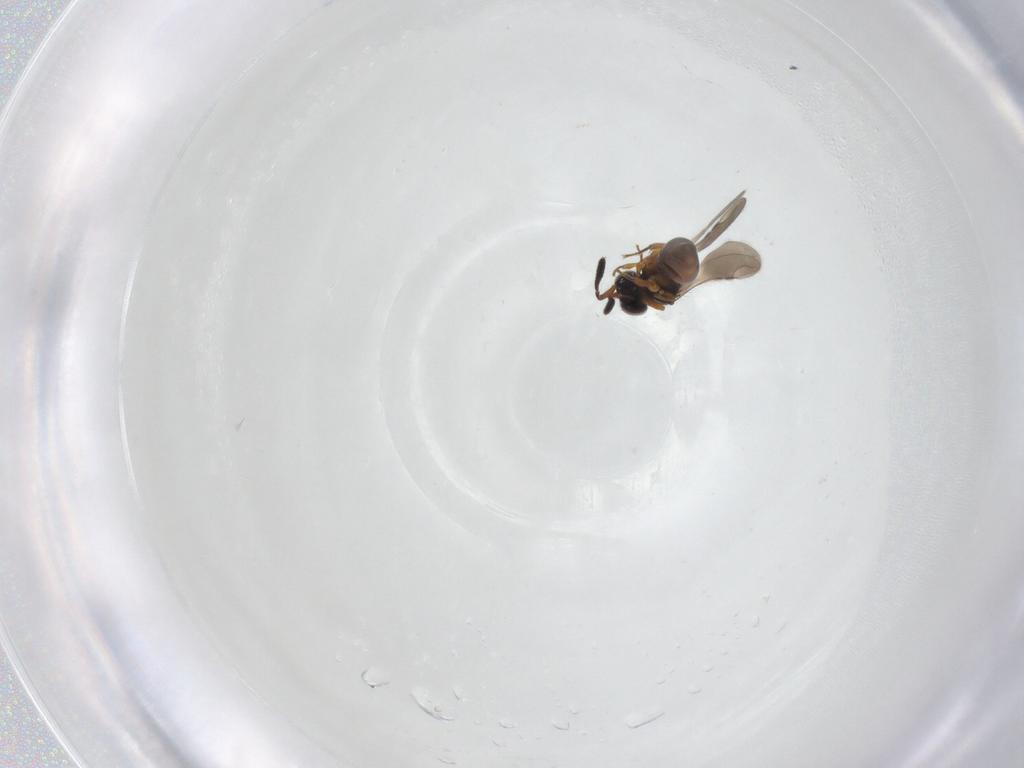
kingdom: Animalia
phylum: Arthropoda
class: Insecta
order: Hymenoptera
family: Ceraphronidae
